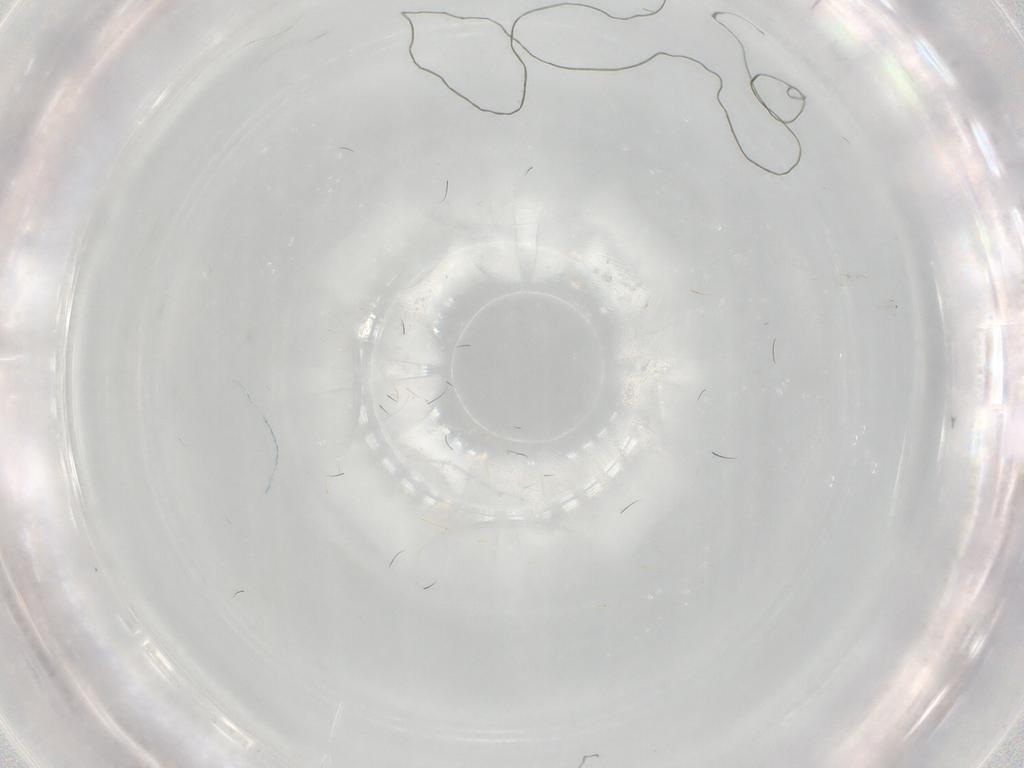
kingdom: Animalia
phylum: Arthropoda
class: Insecta
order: Diptera
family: Cecidomyiidae
